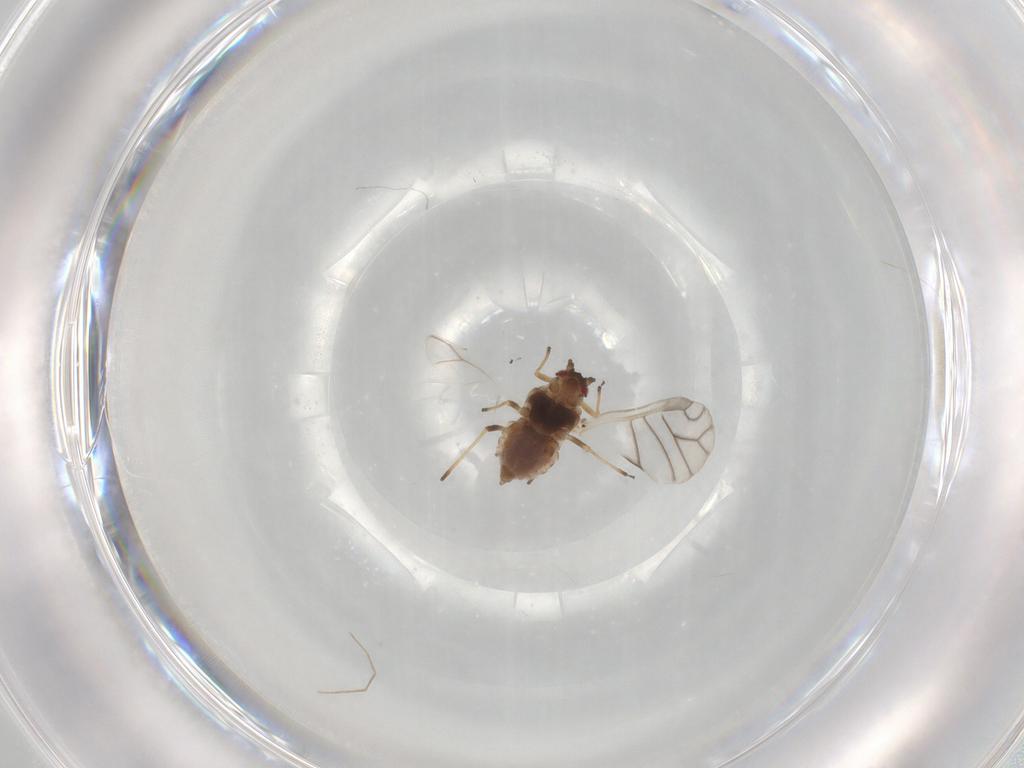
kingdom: Animalia
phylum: Arthropoda
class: Insecta
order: Hemiptera
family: Aphididae
